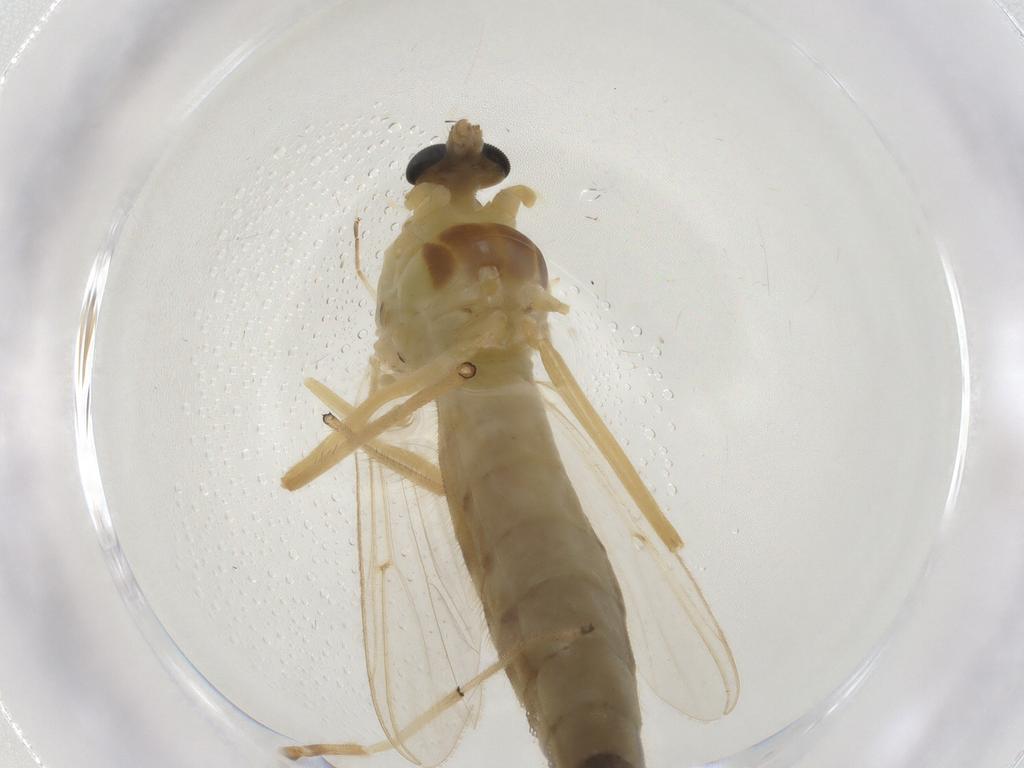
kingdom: Animalia
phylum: Arthropoda
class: Insecta
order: Diptera
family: Chironomidae
